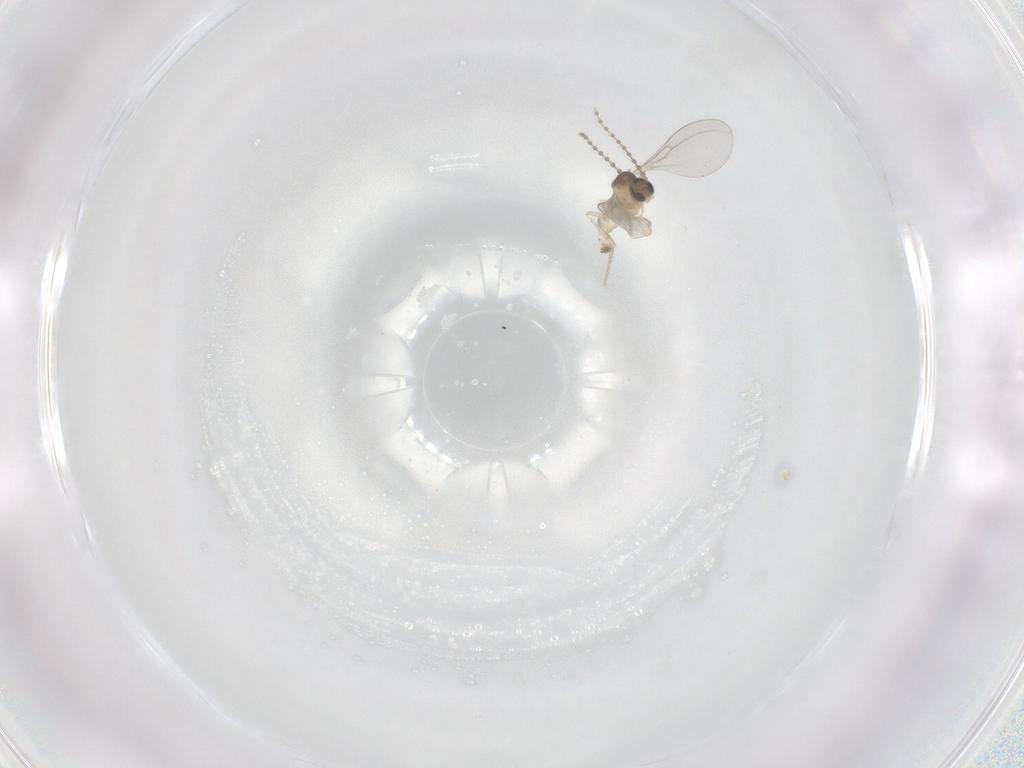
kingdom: Animalia
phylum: Arthropoda
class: Insecta
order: Diptera
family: Cecidomyiidae
